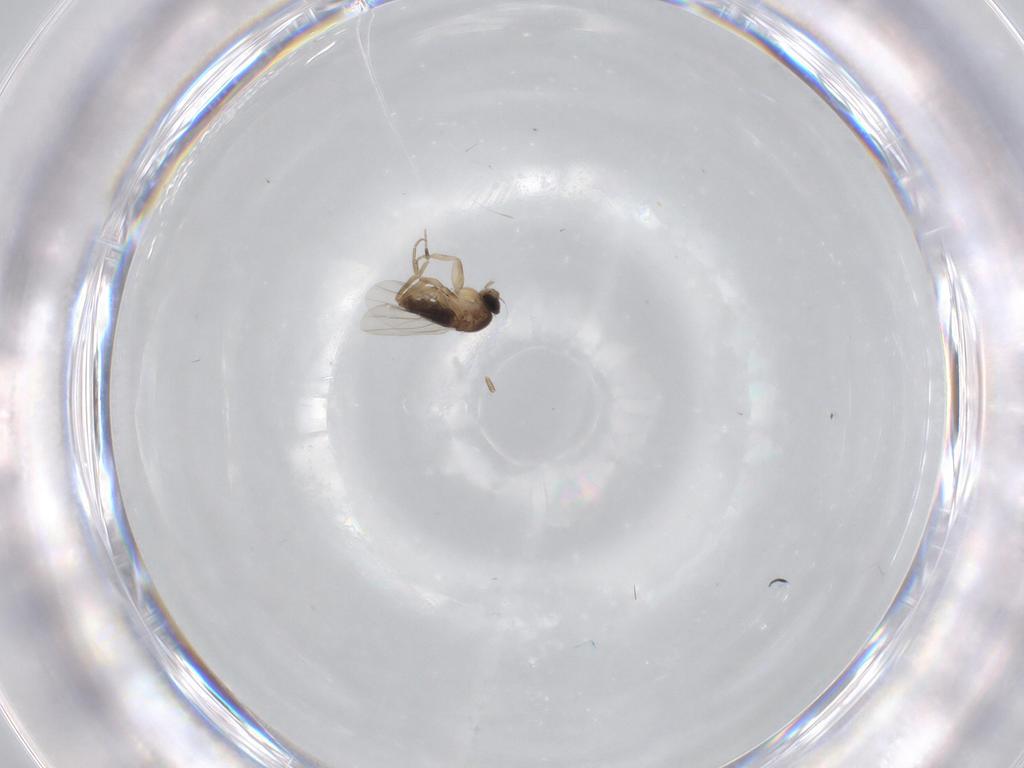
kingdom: Animalia
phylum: Arthropoda
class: Insecta
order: Diptera
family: Phoridae
